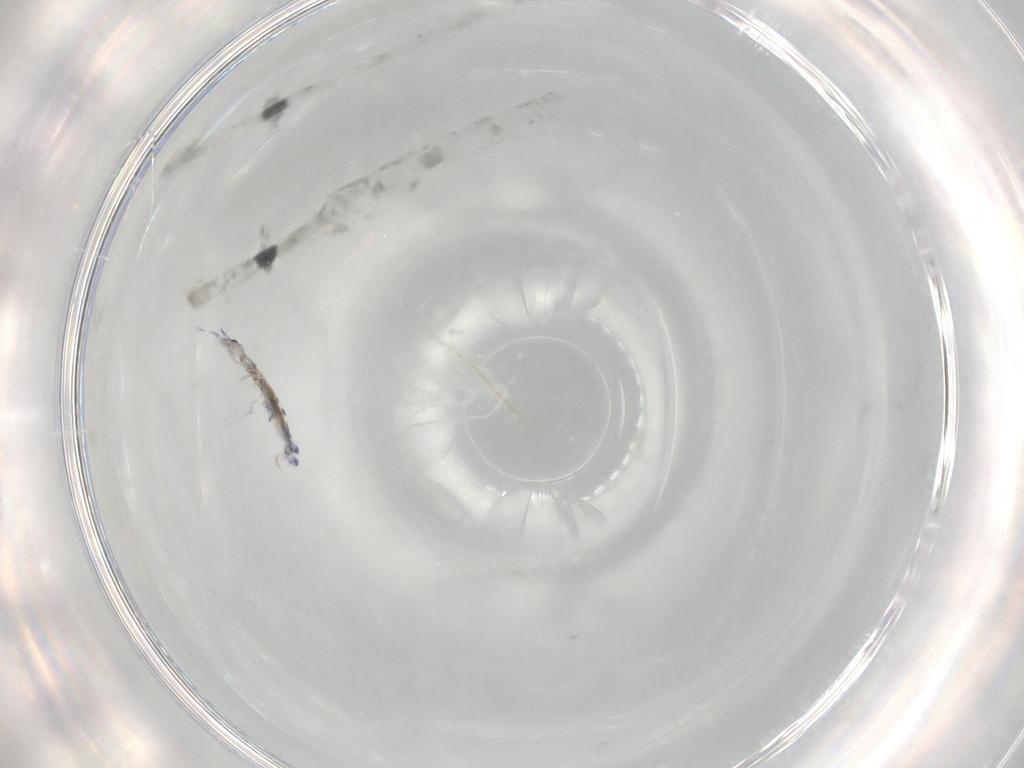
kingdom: Animalia
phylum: Arthropoda
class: Collembola
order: Entomobryomorpha
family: Entomobryidae
